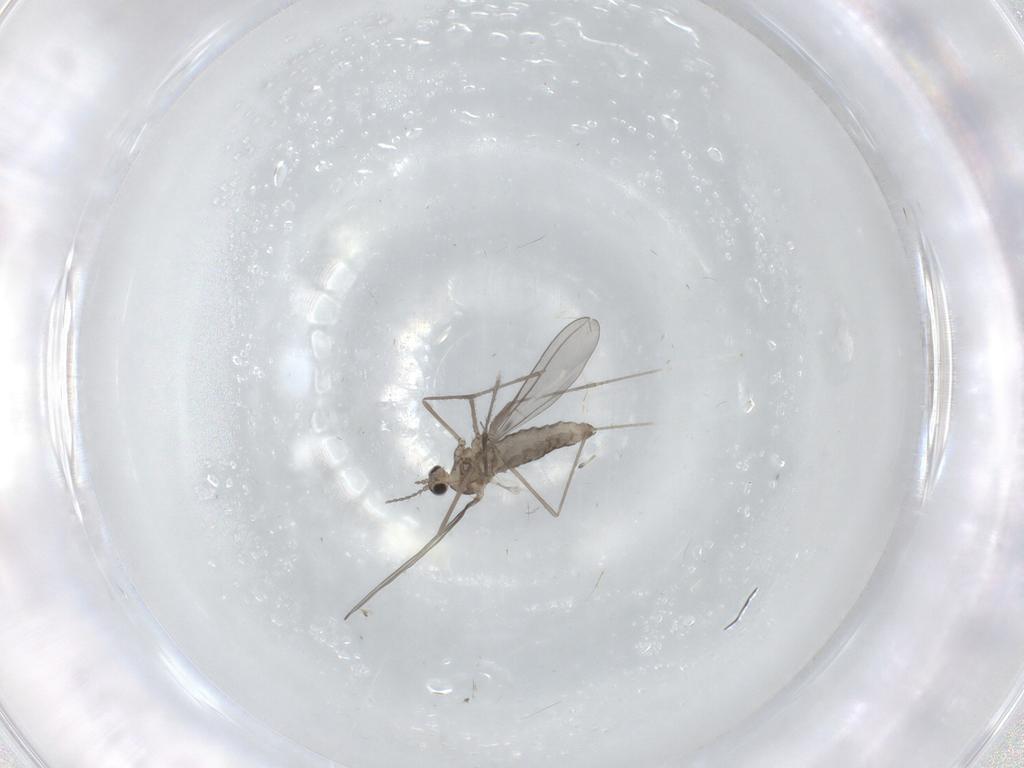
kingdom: Animalia
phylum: Arthropoda
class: Insecta
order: Diptera
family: Cecidomyiidae
